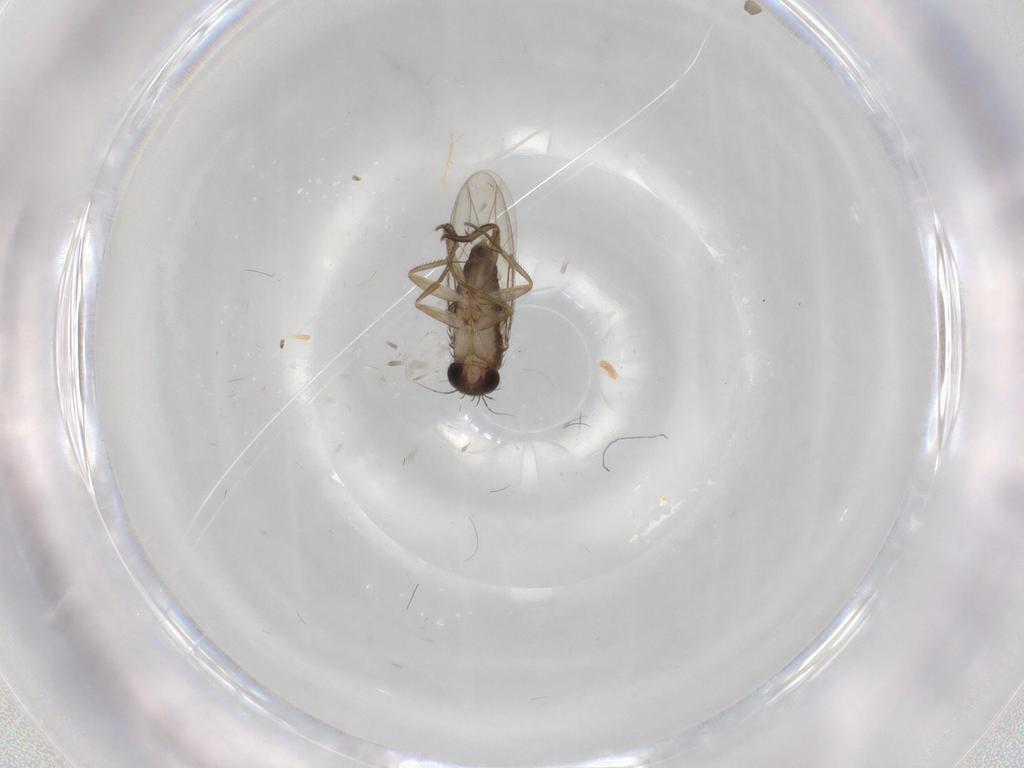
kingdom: Animalia
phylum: Arthropoda
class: Insecta
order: Diptera
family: Phoridae
